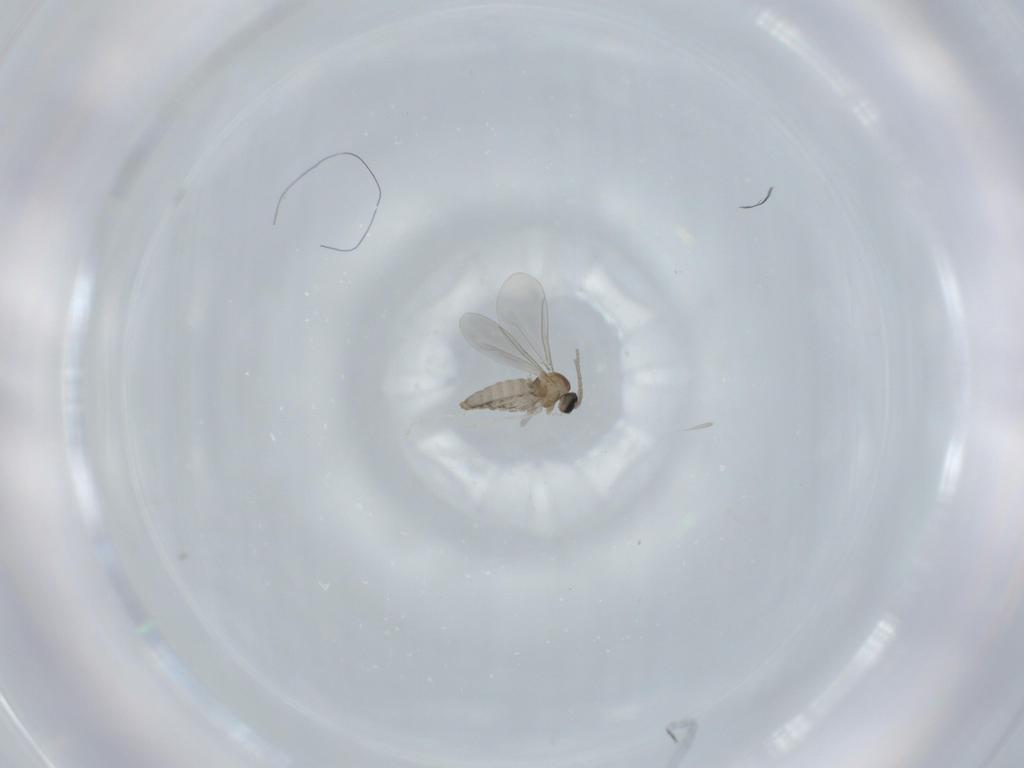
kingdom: Animalia
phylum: Arthropoda
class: Insecta
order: Diptera
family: Cecidomyiidae
